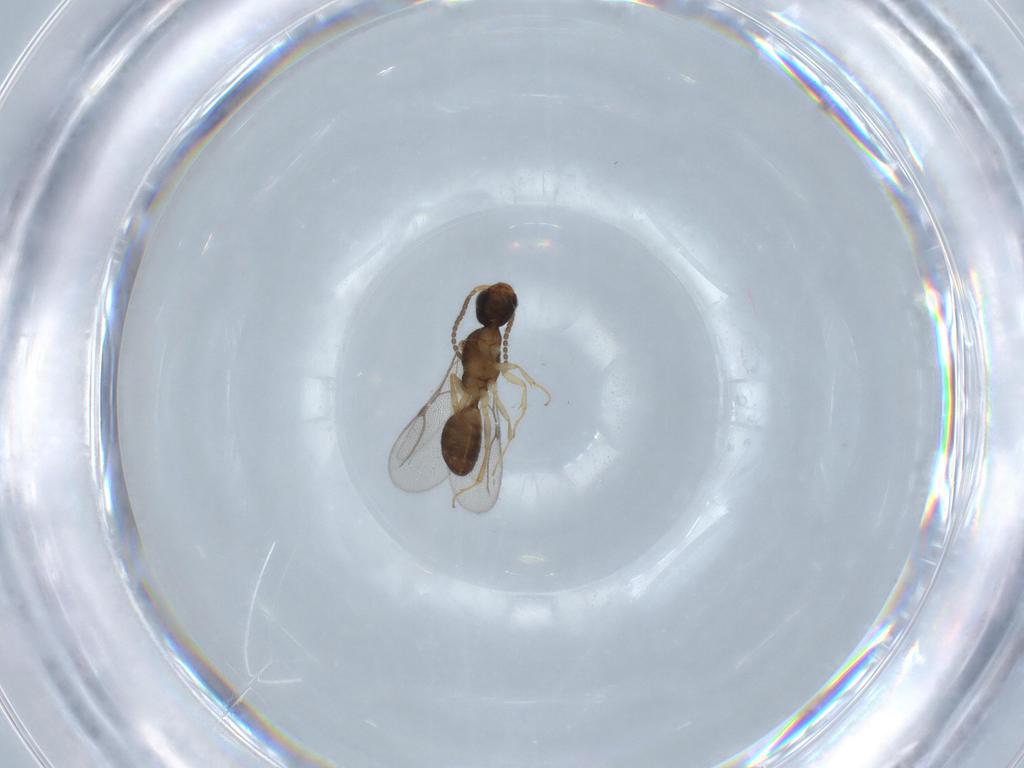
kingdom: Animalia
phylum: Arthropoda
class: Insecta
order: Hymenoptera
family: Bethylidae
